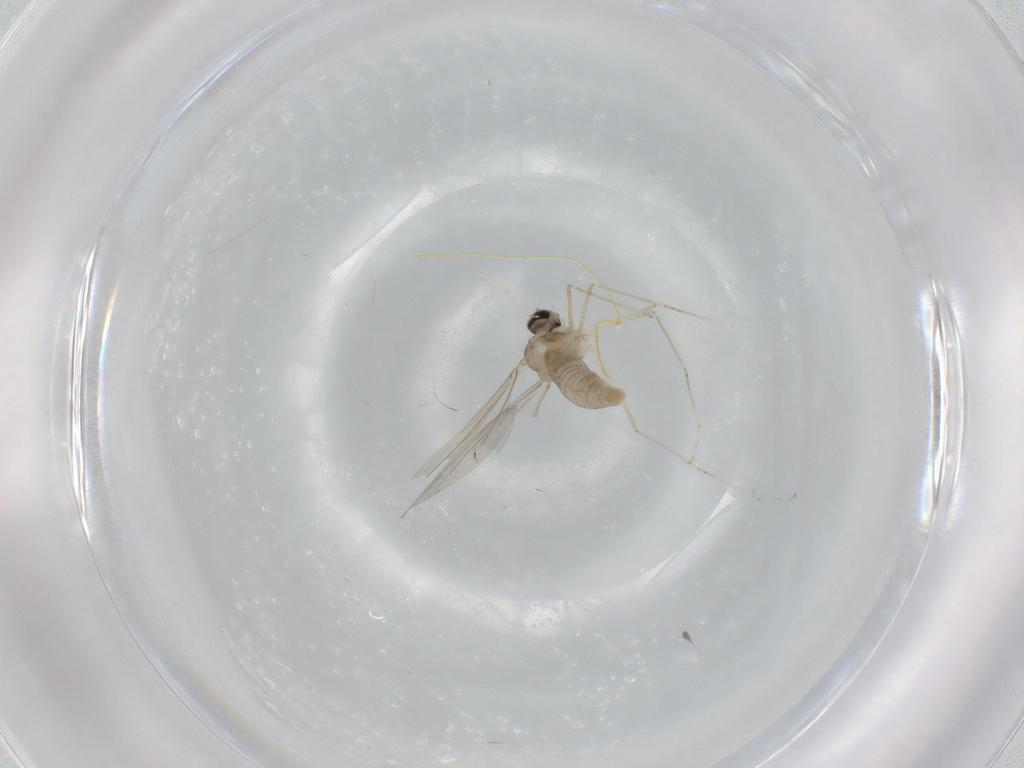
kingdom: Animalia
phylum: Arthropoda
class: Insecta
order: Diptera
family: Cecidomyiidae
